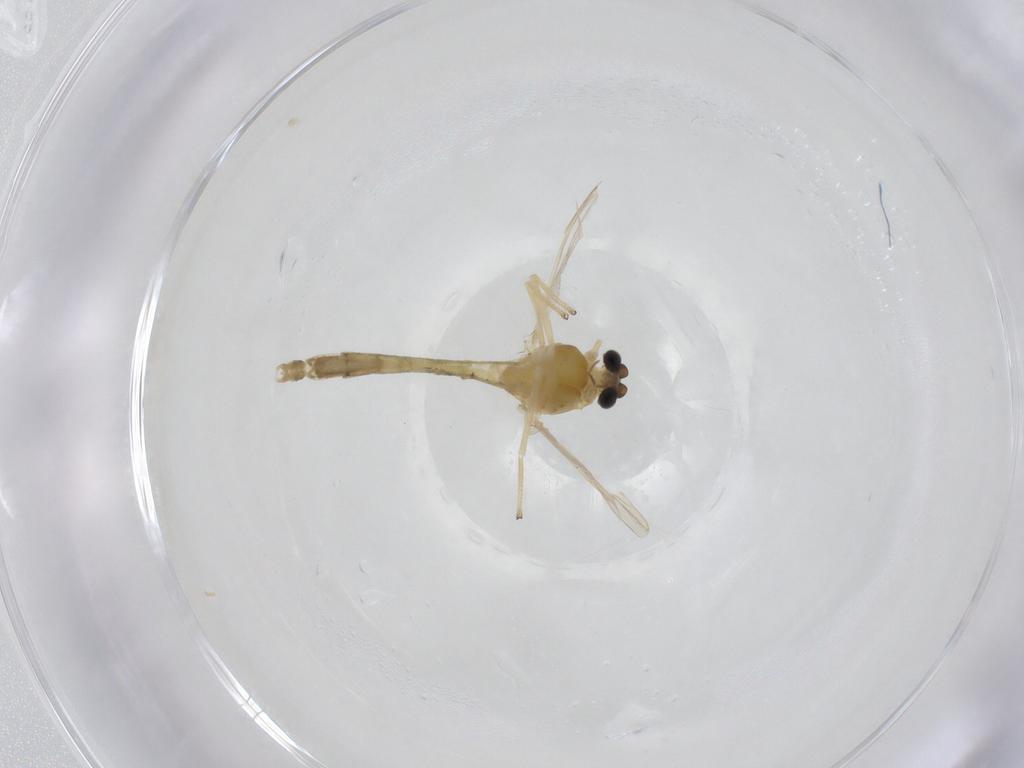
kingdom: Animalia
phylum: Arthropoda
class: Insecta
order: Diptera
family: Chironomidae
